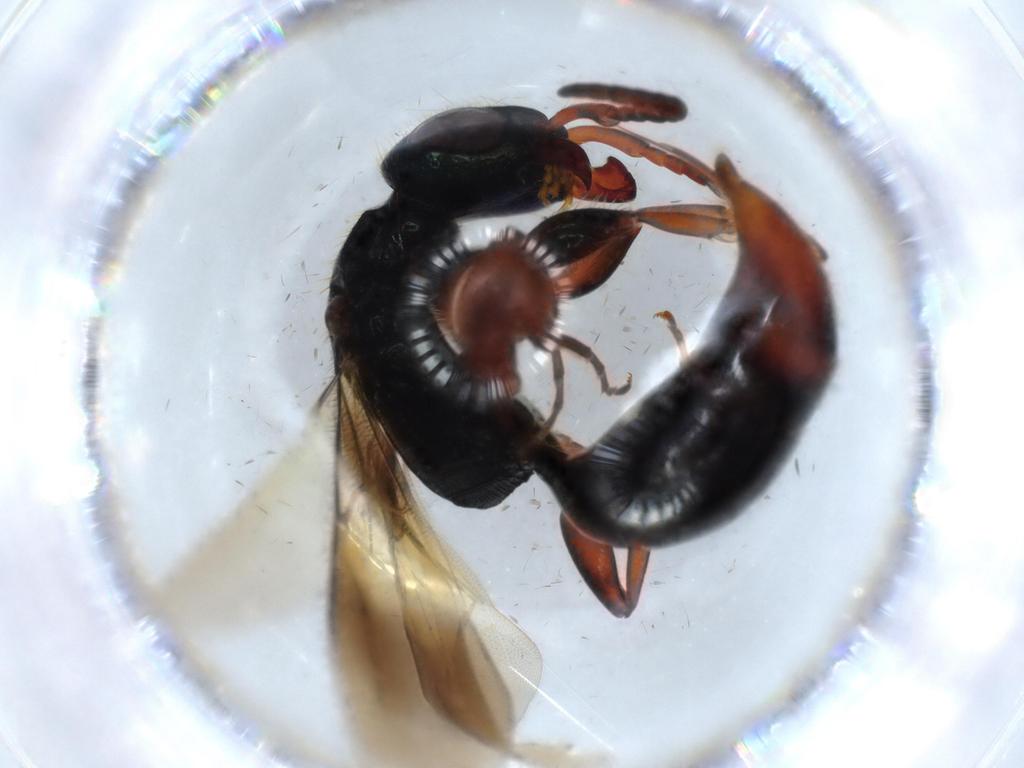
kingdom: Animalia
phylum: Arthropoda
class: Insecta
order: Hymenoptera
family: Bethylidae
